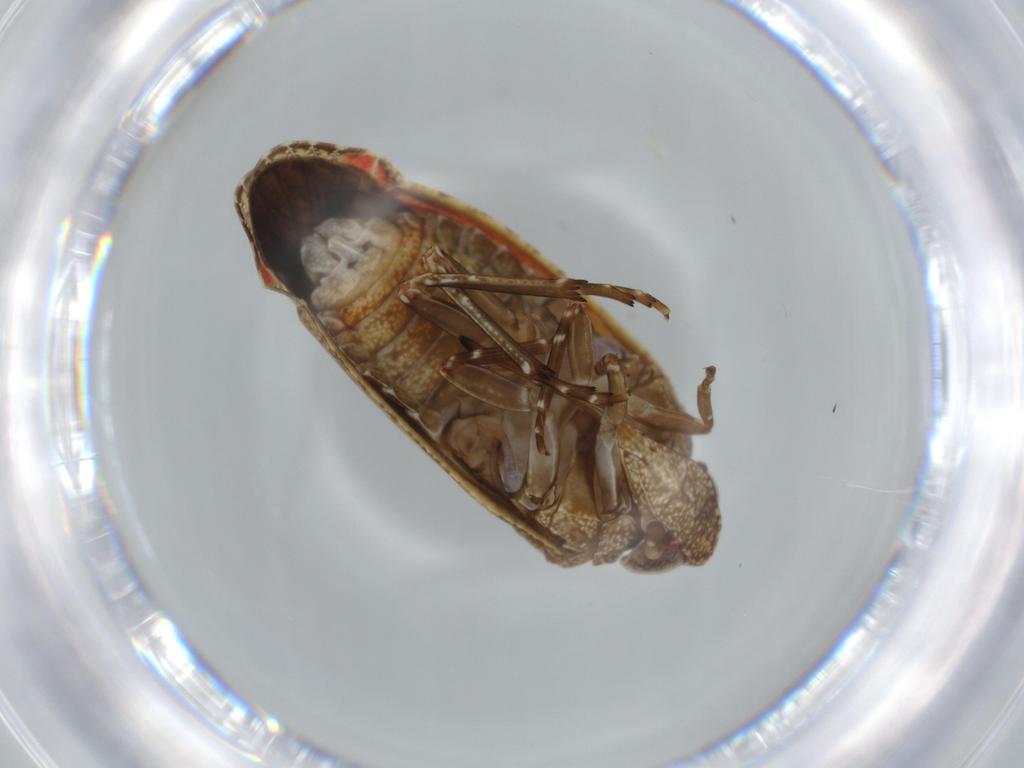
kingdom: Animalia
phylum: Arthropoda
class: Insecta
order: Hemiptera
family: Achilidae
